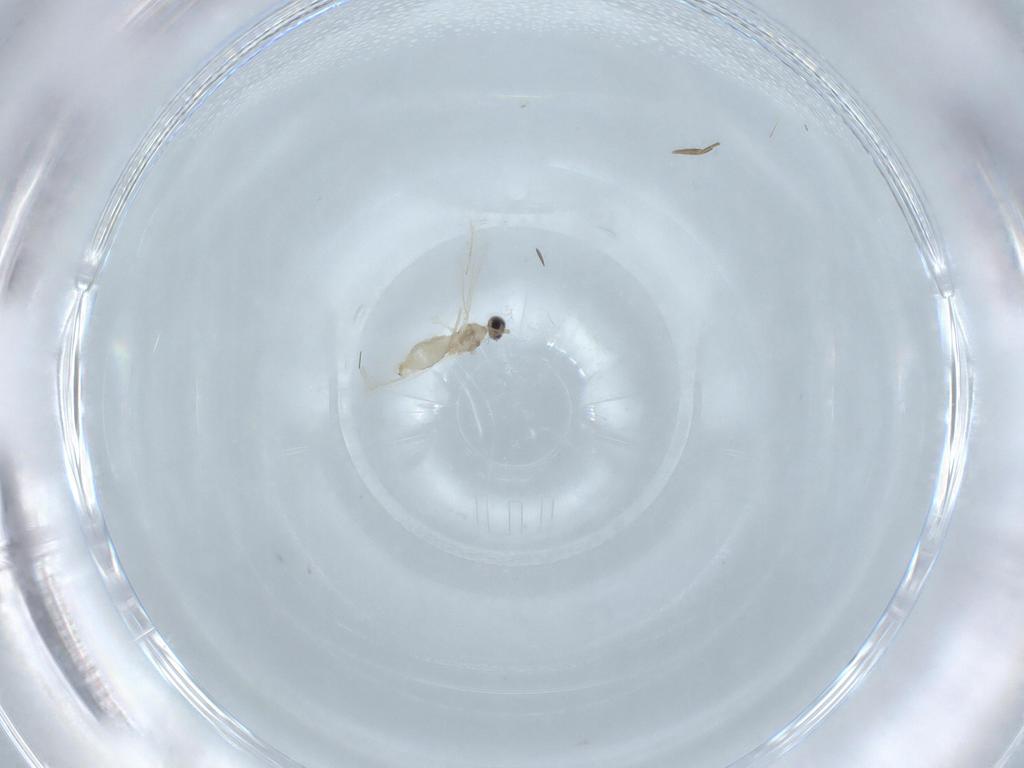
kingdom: Animalia
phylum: Arthropoda
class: Insecta
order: Diptera
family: Cecidomyiidae
